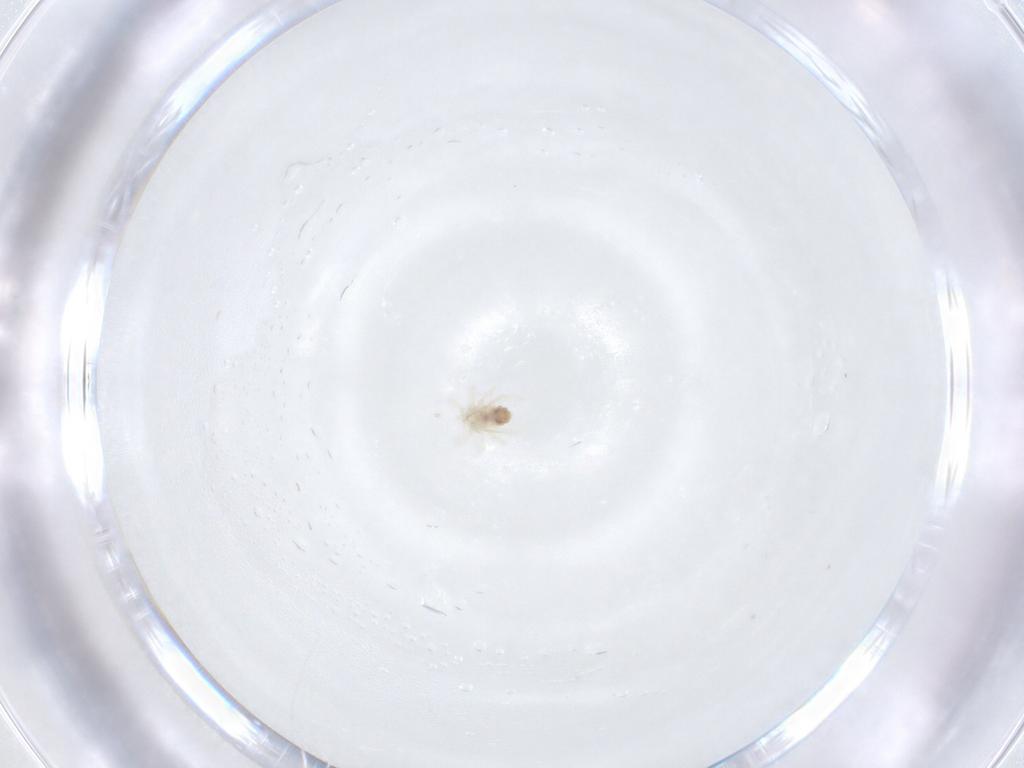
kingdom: Animalia
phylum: Arthropoda
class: Arachnida
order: Trombidiformes
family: Anystidae
